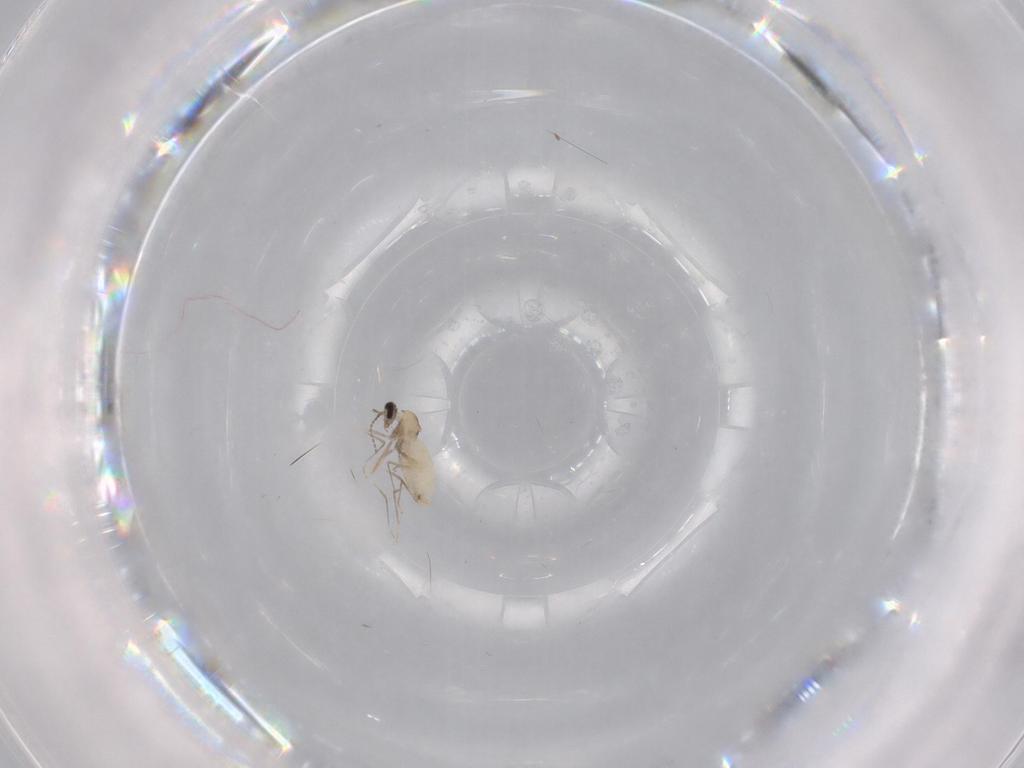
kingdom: Animalia
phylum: Arthropoda
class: Insecta
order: Diptera
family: Cecidomyiidae
